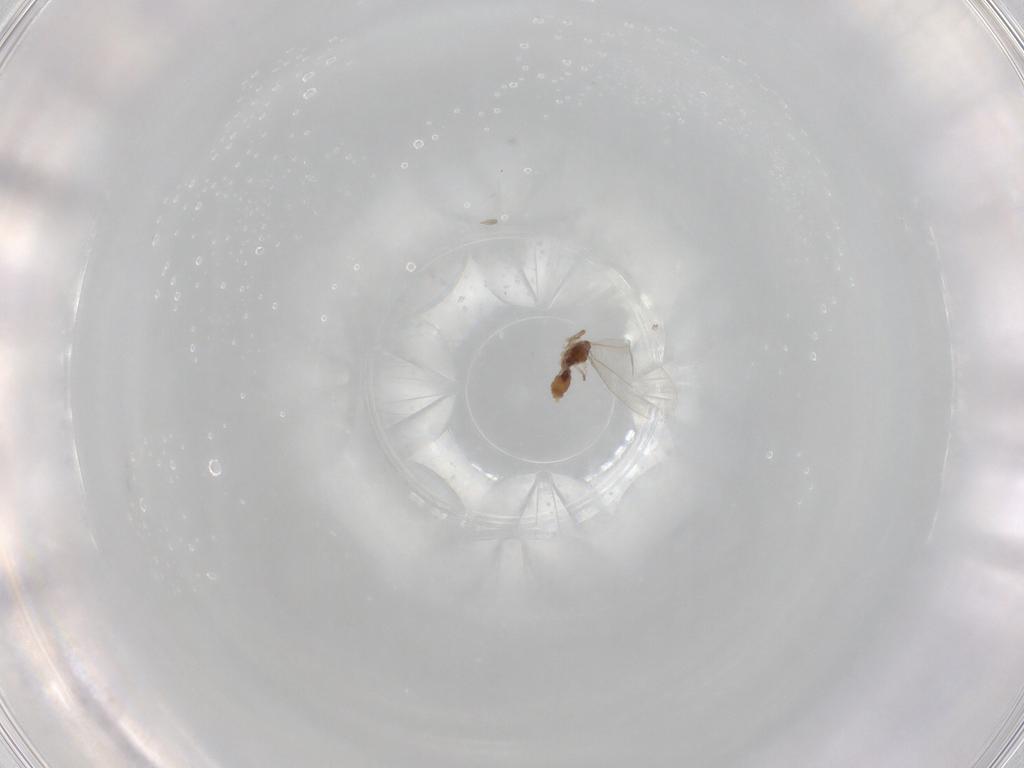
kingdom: Animalia
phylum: Arthropoda
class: Insecta
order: Diptera
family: Cecidomyiidae
